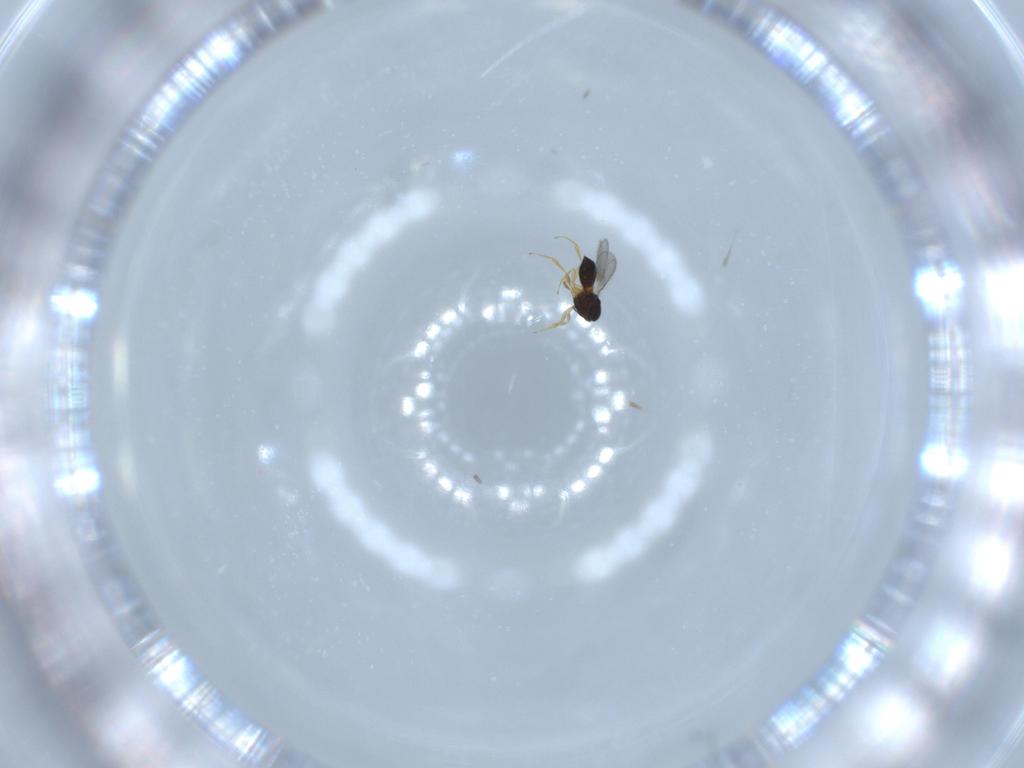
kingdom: Animalia
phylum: Arthropoda
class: Insecta
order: Hymenoptera
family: Scelionidae
